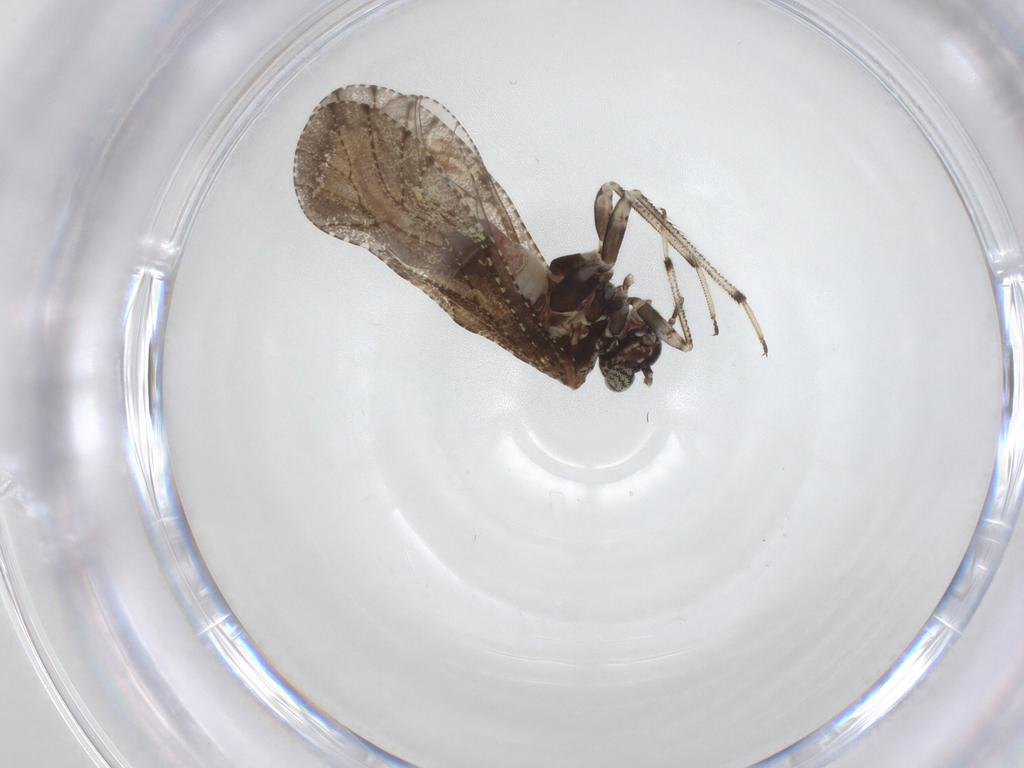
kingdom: Animalia
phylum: Arthropoda
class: Insecta
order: Psocodea
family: Myopsocidae
